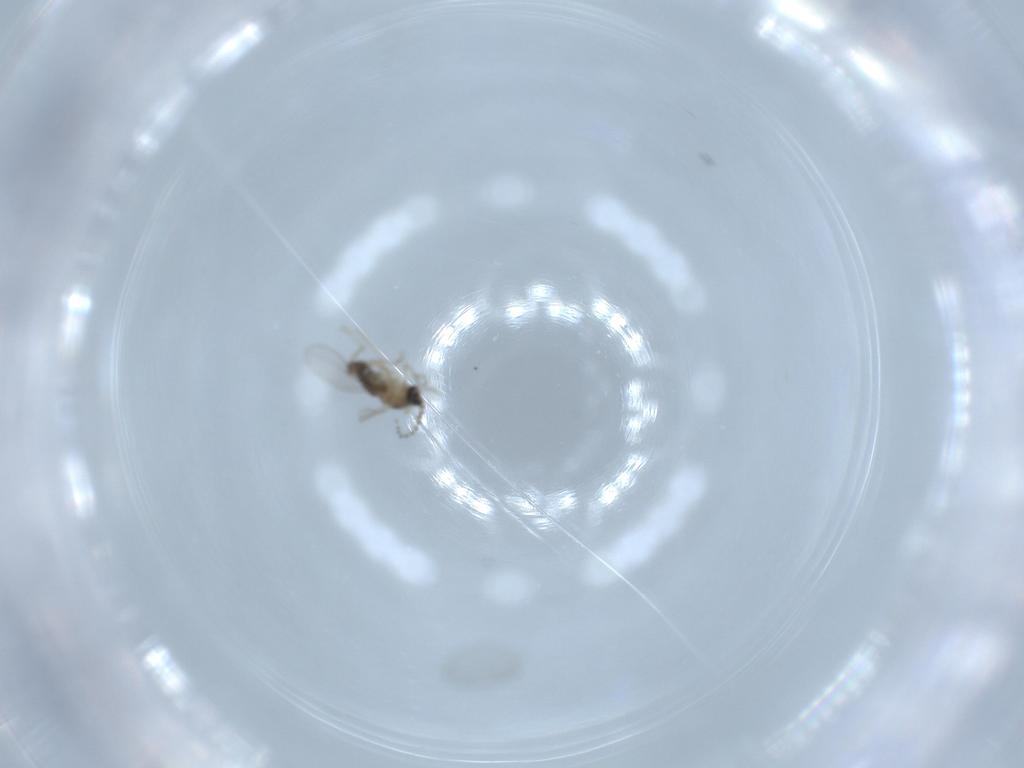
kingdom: Animalia
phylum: Arthropoda
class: Insecta
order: Diptera
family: Cecidomyiidae
